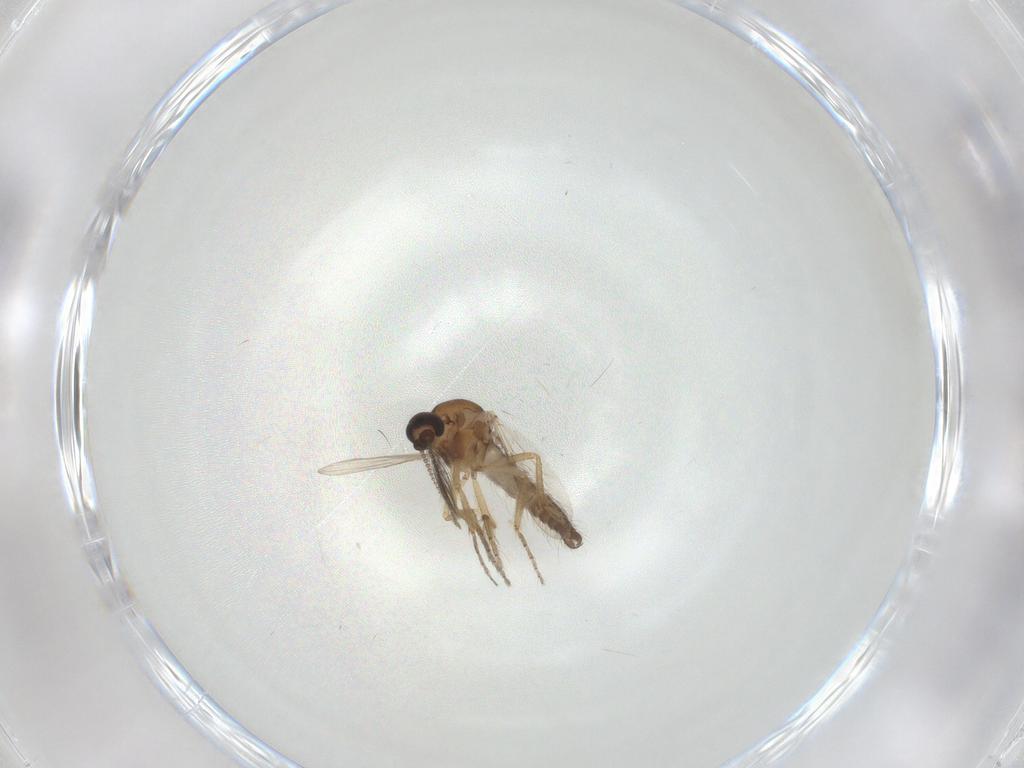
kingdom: Animalia
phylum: Arthropoda
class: Insecta
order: Diptera
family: Ceratopogonidae
